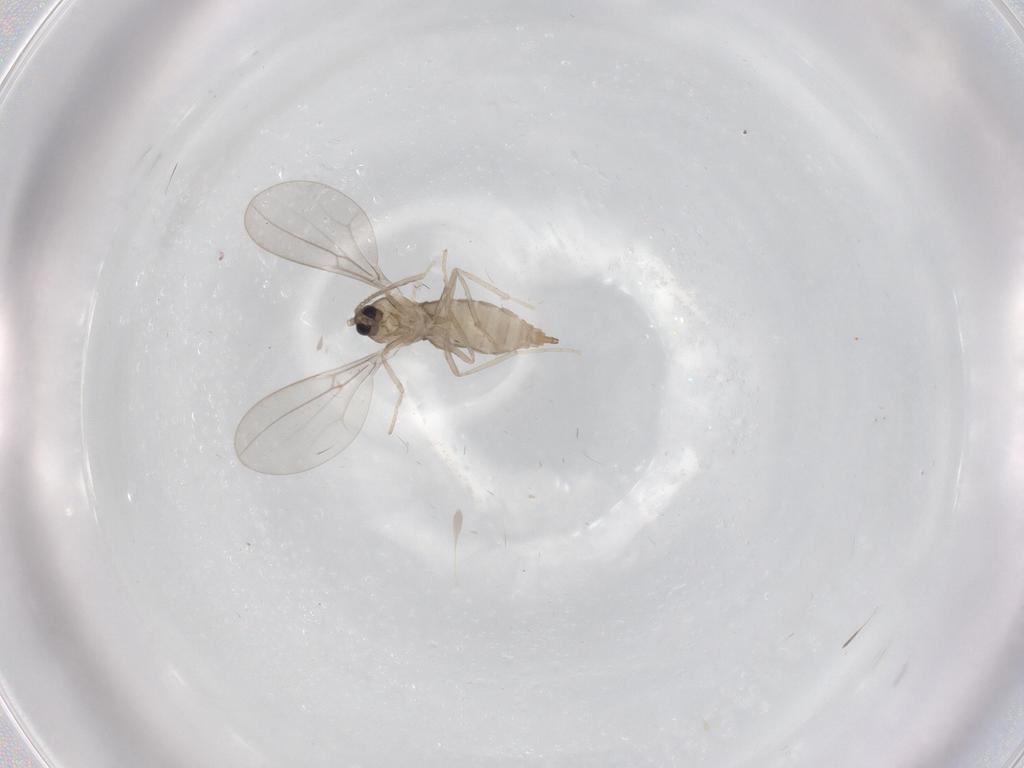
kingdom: Animalia
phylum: Arthropoda
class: Insecta
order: Diptera
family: Cecidomyiidae
